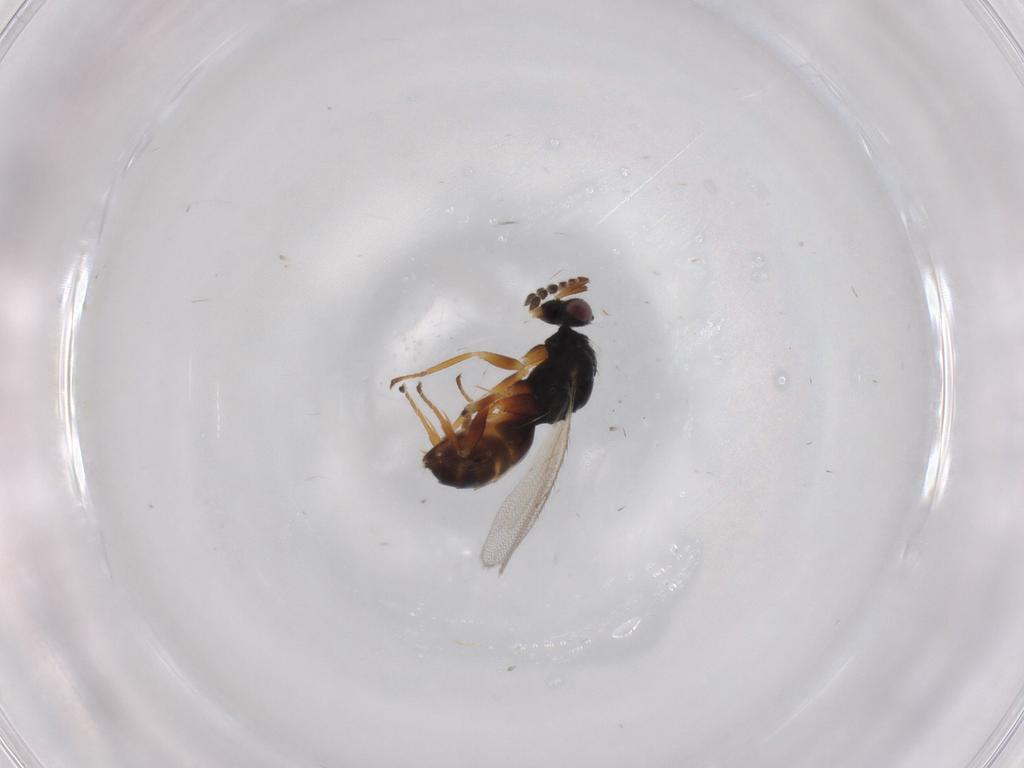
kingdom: Animalia
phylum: Arthropoda
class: Insecta
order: Hymenoptera
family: Eulophidae
